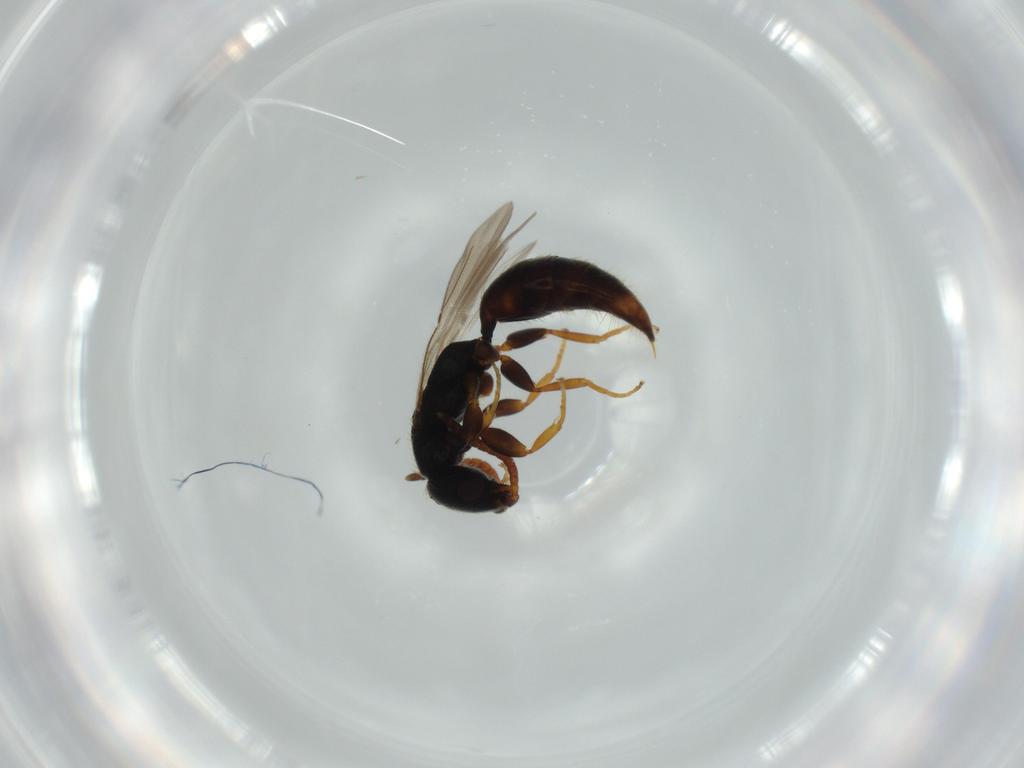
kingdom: Animalia
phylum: Arthropoda
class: Insecta
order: Hymenoptera
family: Bethylidae
